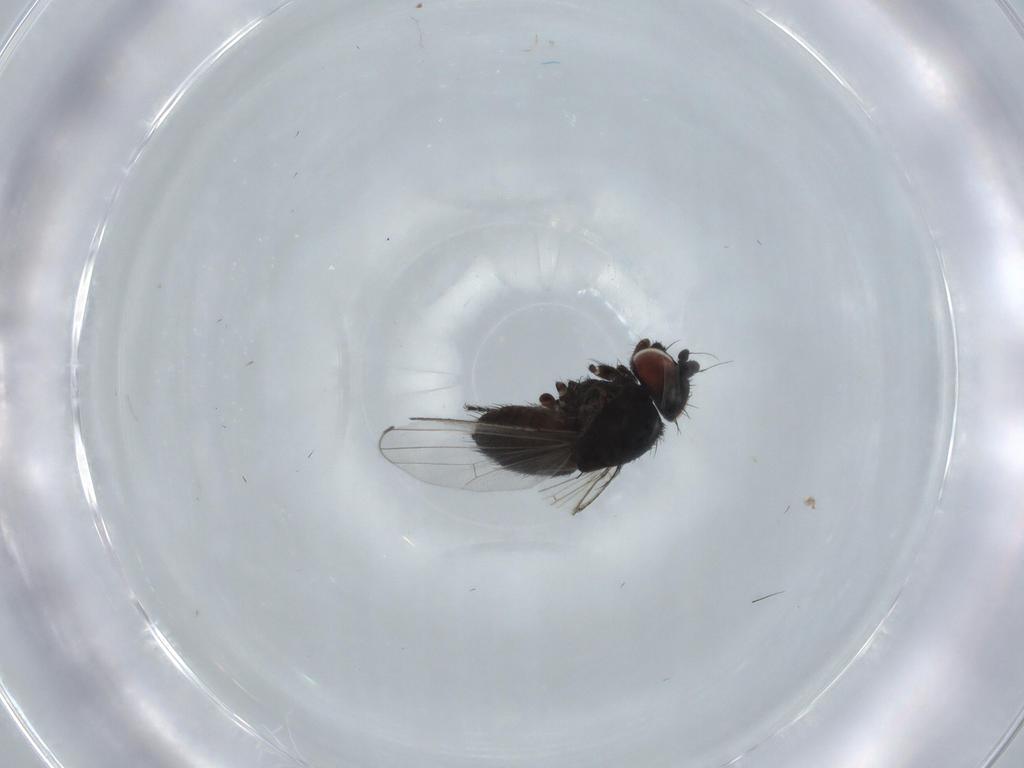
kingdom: Animalia
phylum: Arthropoda
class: Insecta
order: Diptera
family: Milichiidae
